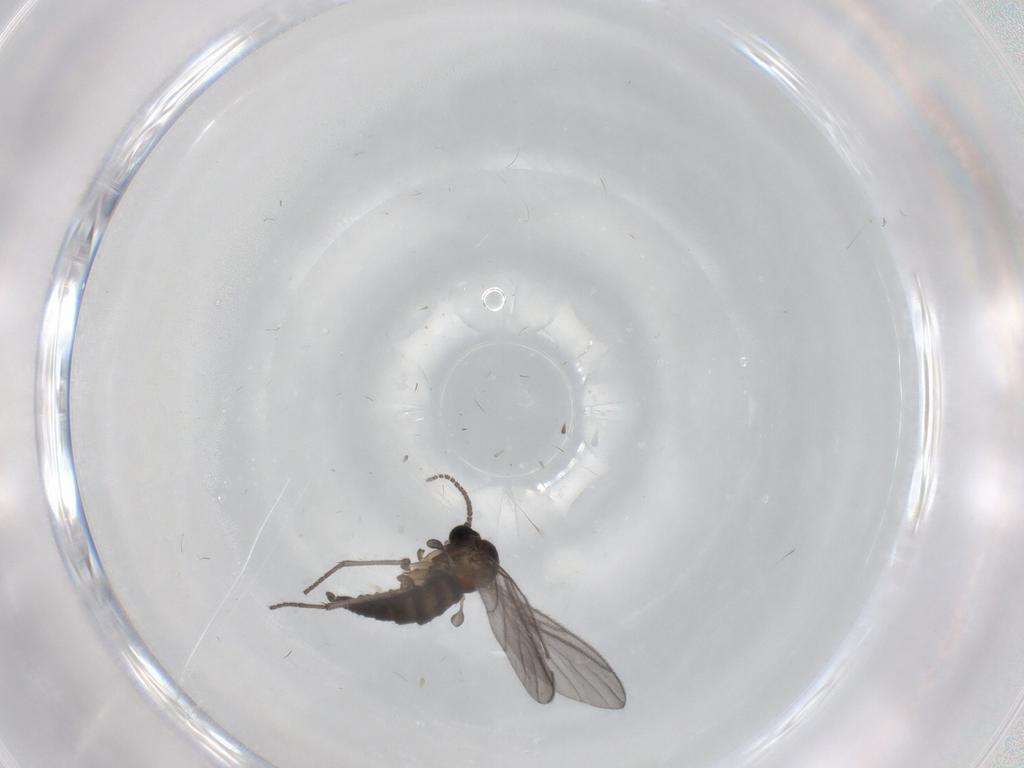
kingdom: Animalia
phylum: Arthropoda
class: Insecta
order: Diptera
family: Sciaridae
